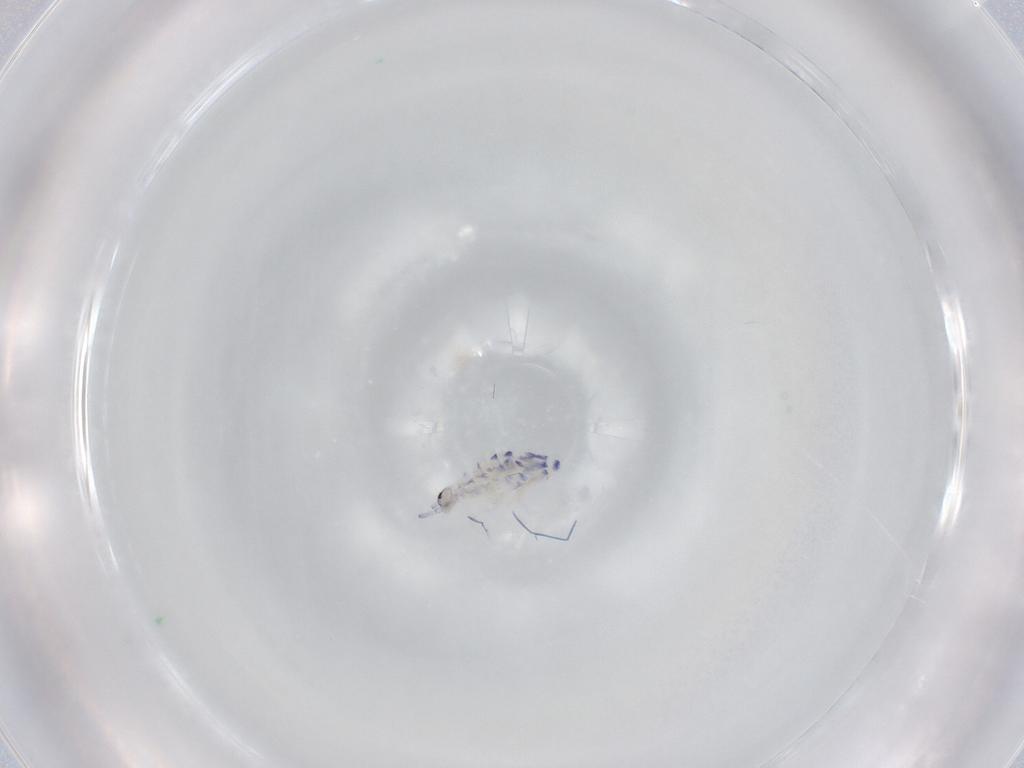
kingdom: Animalia
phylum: Arthropoda
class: Collembola
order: Entomobryomorpha
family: Entomobryidae
